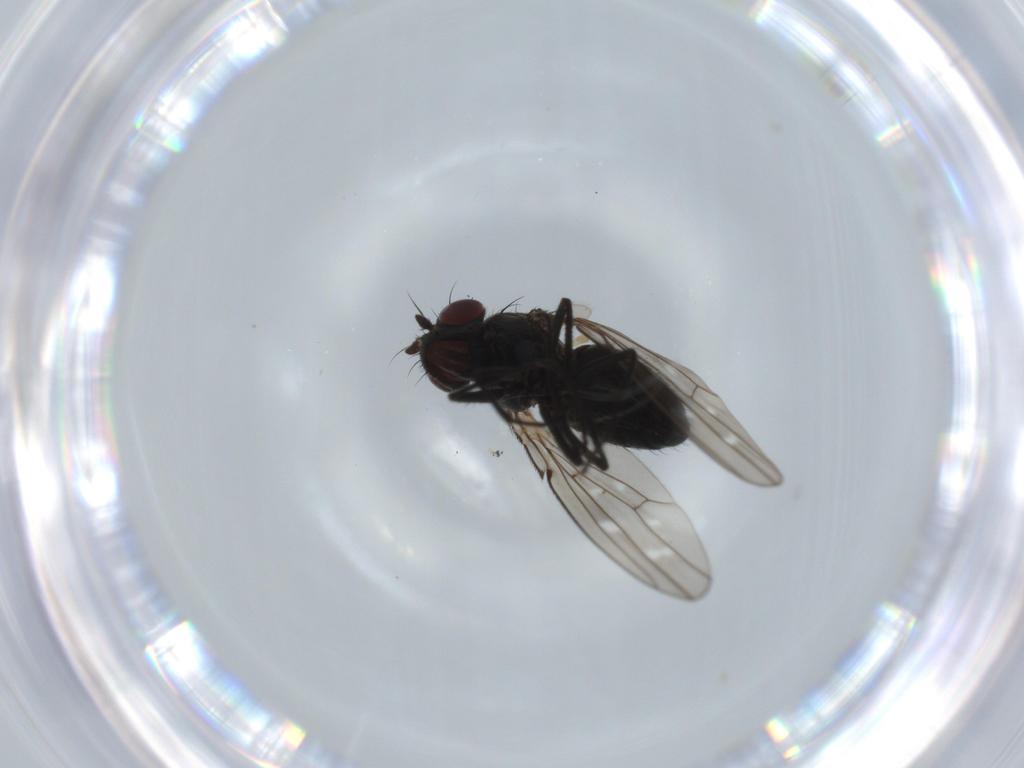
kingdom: Animalia
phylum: Arthropoda
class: Insecta
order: Diptera
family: Ephydridae
